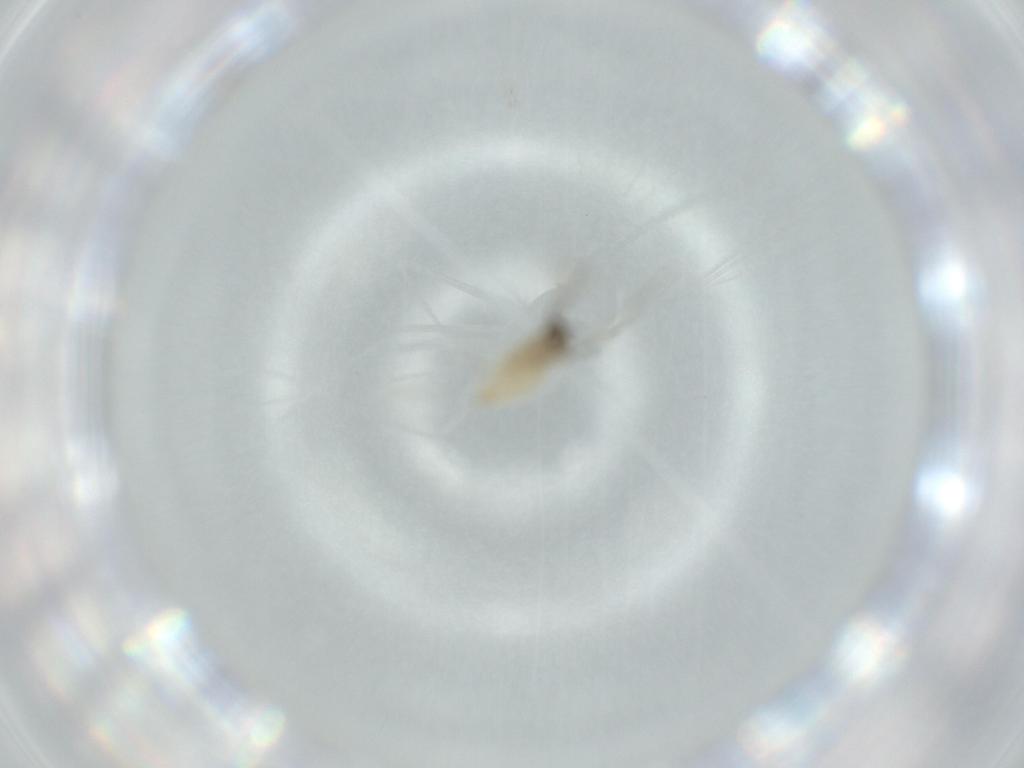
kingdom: Animalia
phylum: Arthropoda
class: Insecta
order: Diptera
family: Cecidomyiidae
